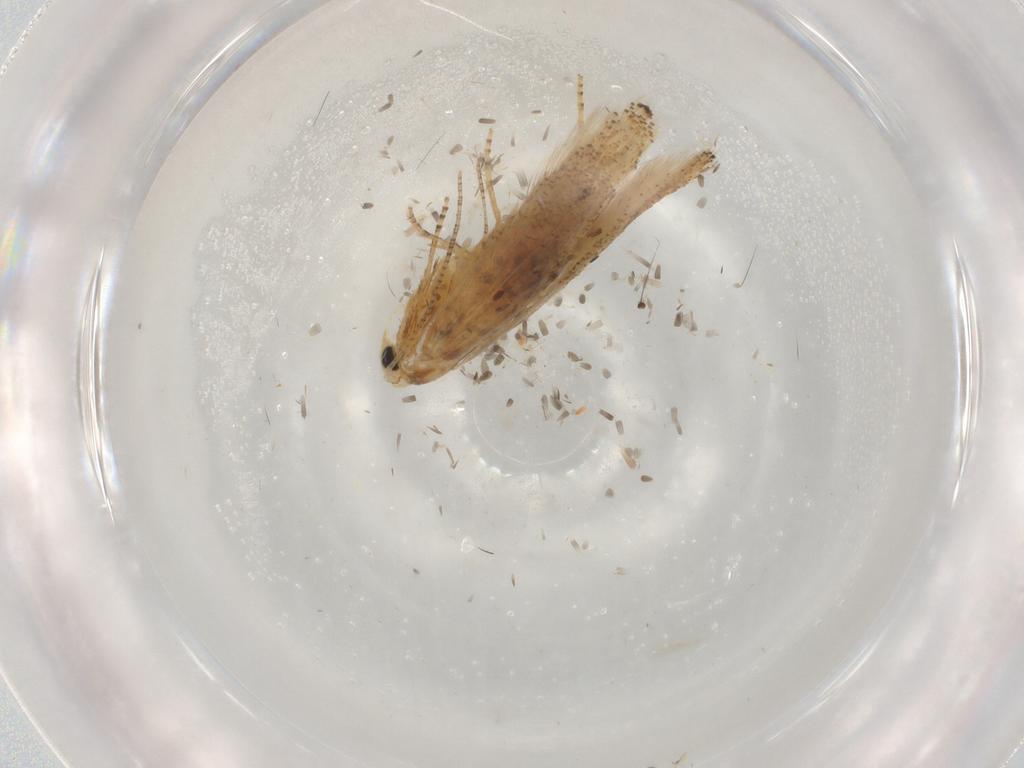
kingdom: Animalia
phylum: Arthropoda
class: Insecta
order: Lepidoptera
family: Bucculatricidae
